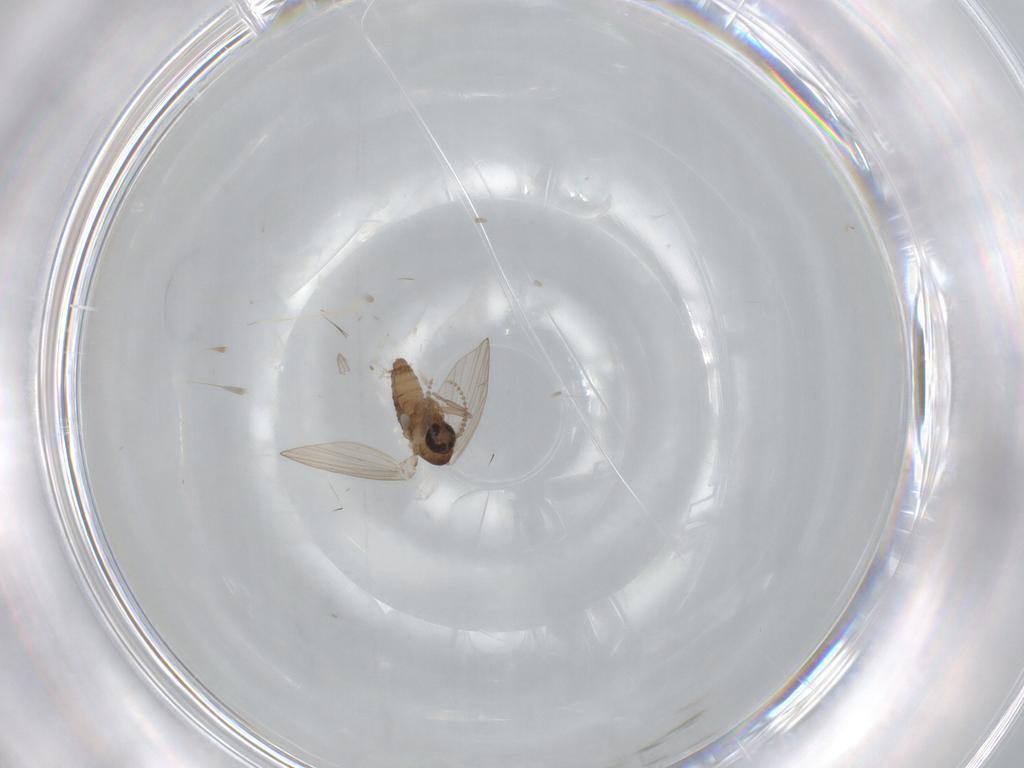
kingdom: Animalia
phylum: Arthropoda
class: Insecta
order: Diptera
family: Psychodidae
